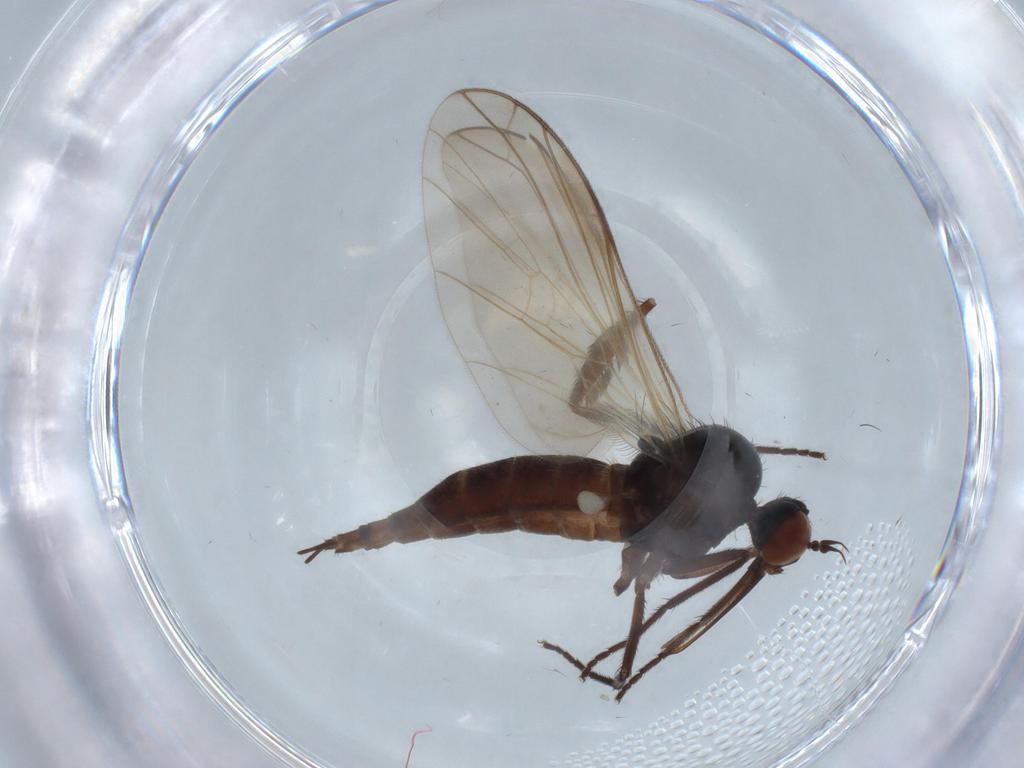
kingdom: Animalia
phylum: Arthropoda
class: Insecta
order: Diptera
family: Empididae
